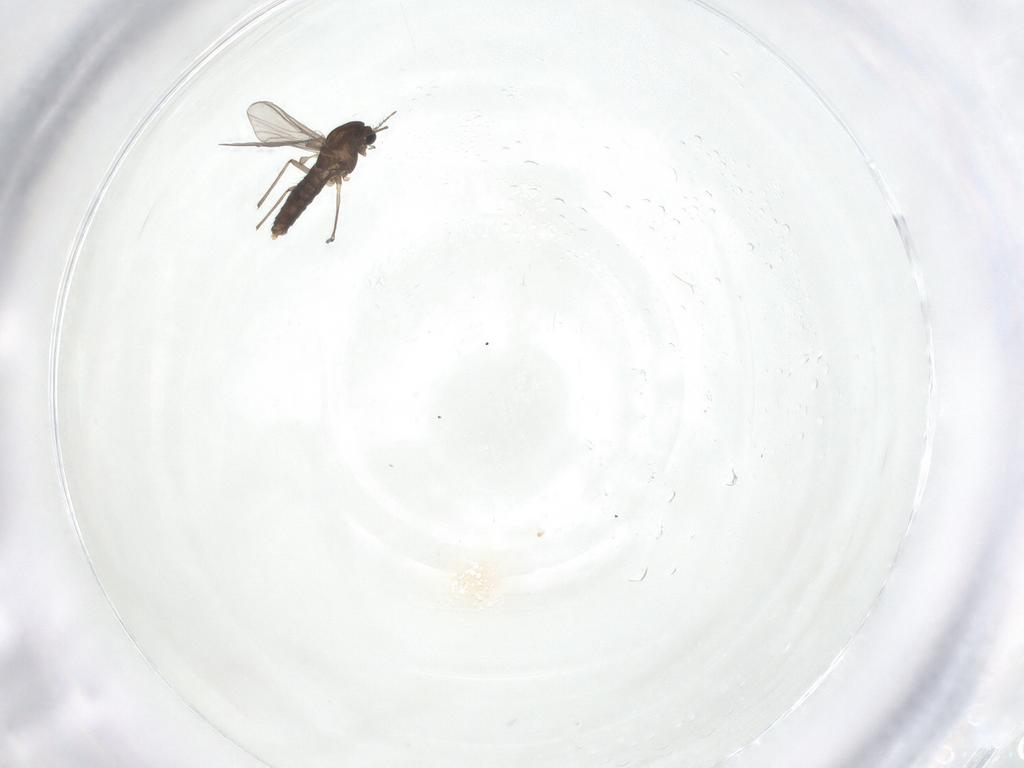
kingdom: Animalia
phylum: Arthropoda
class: Insecta
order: Diptera
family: Chironomidae
